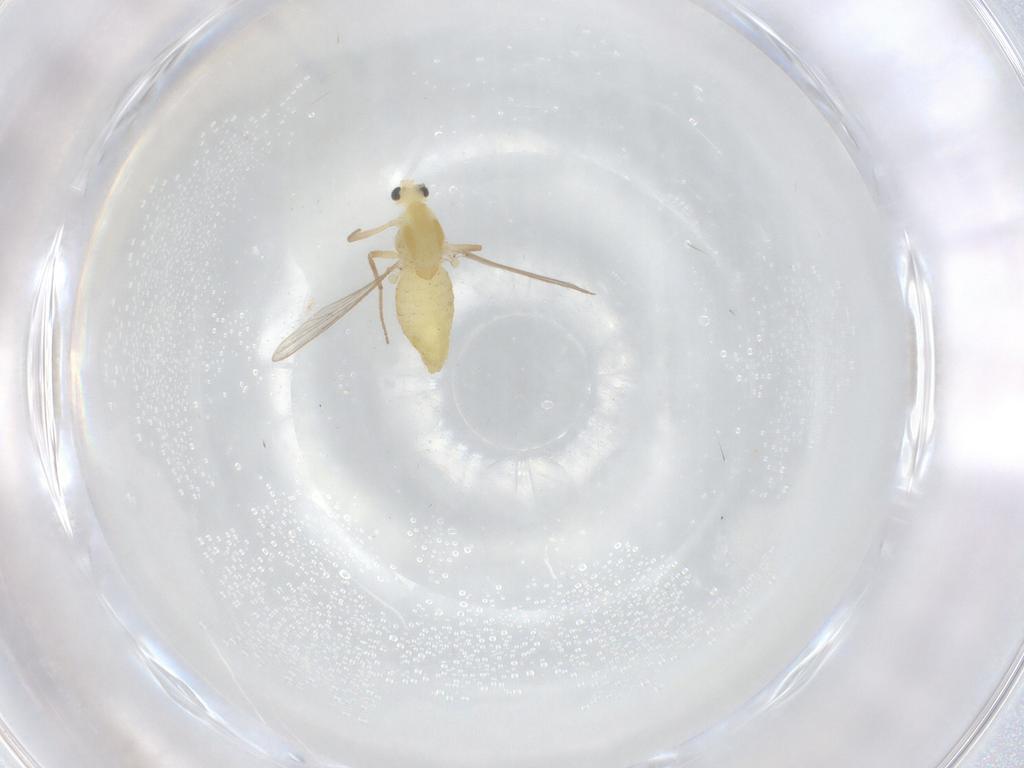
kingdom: Animalia
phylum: Arthropoda
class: Insecta
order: Diptera
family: Chironomidae
